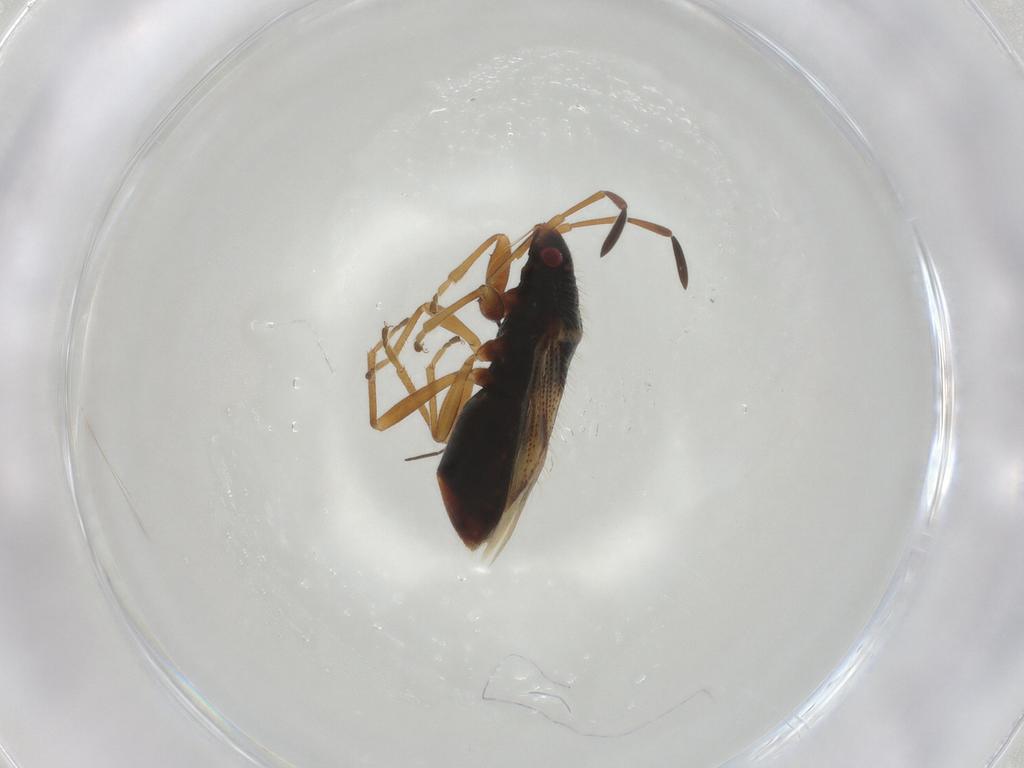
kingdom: Animalia
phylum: Arthropoda
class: Insecta
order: Hemiptera
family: Rhyparochromidae
